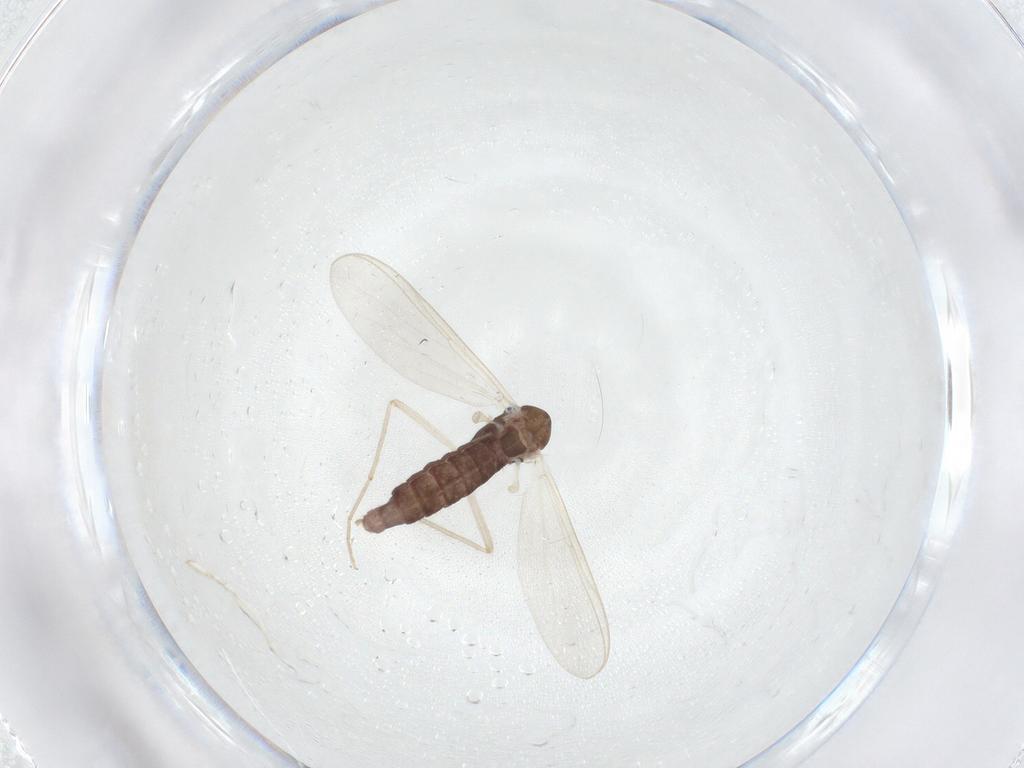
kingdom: Animalia
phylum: Arthropoda
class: Insecta
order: Diptera
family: Chironomidae
